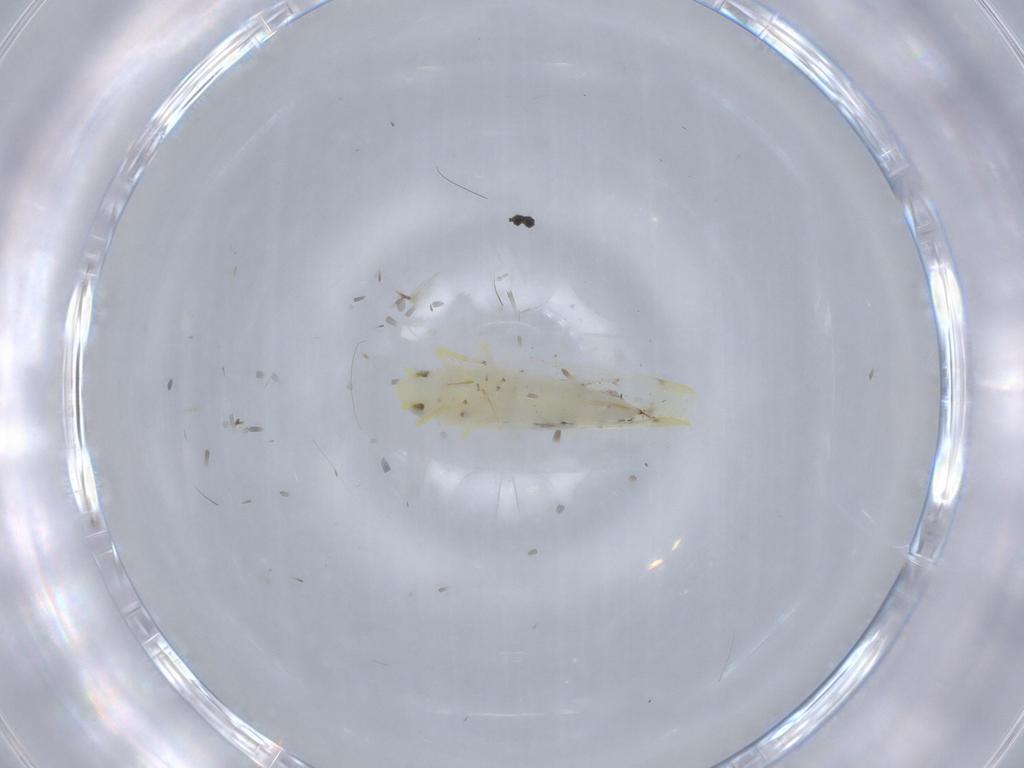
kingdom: Animalia
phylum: Arthropoda
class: Insecta
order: Hemiptera
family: Cicadellidae
